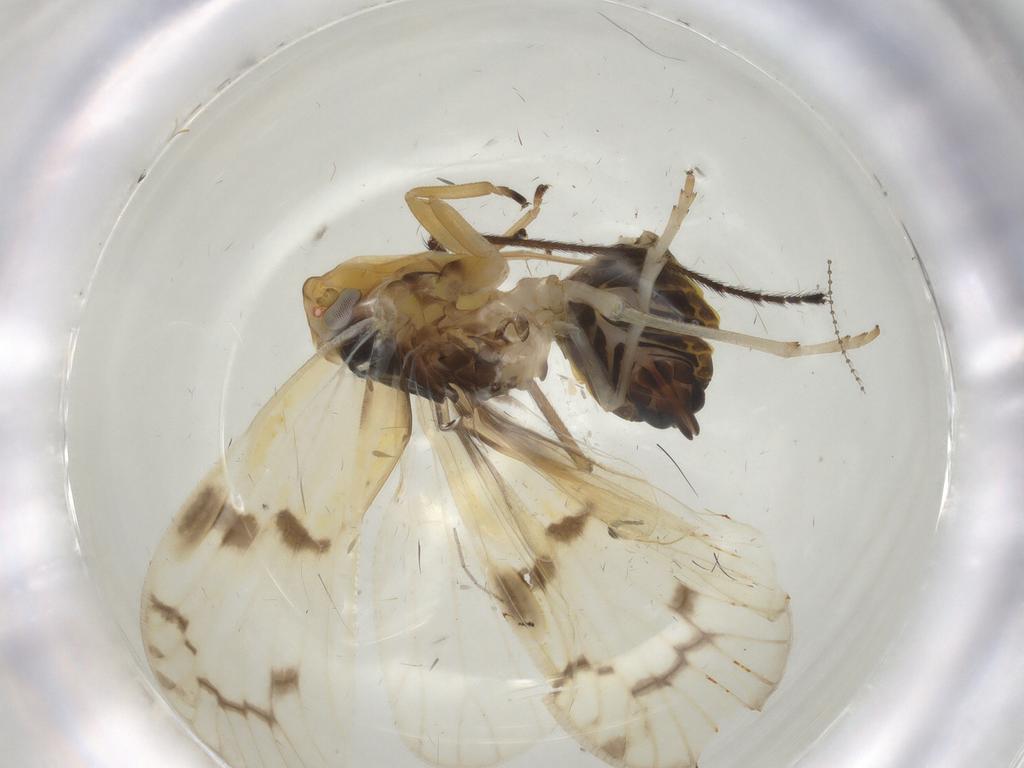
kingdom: Animalia
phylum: Arthropoda
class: Insecta
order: Hemiptera
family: Cixiidae
